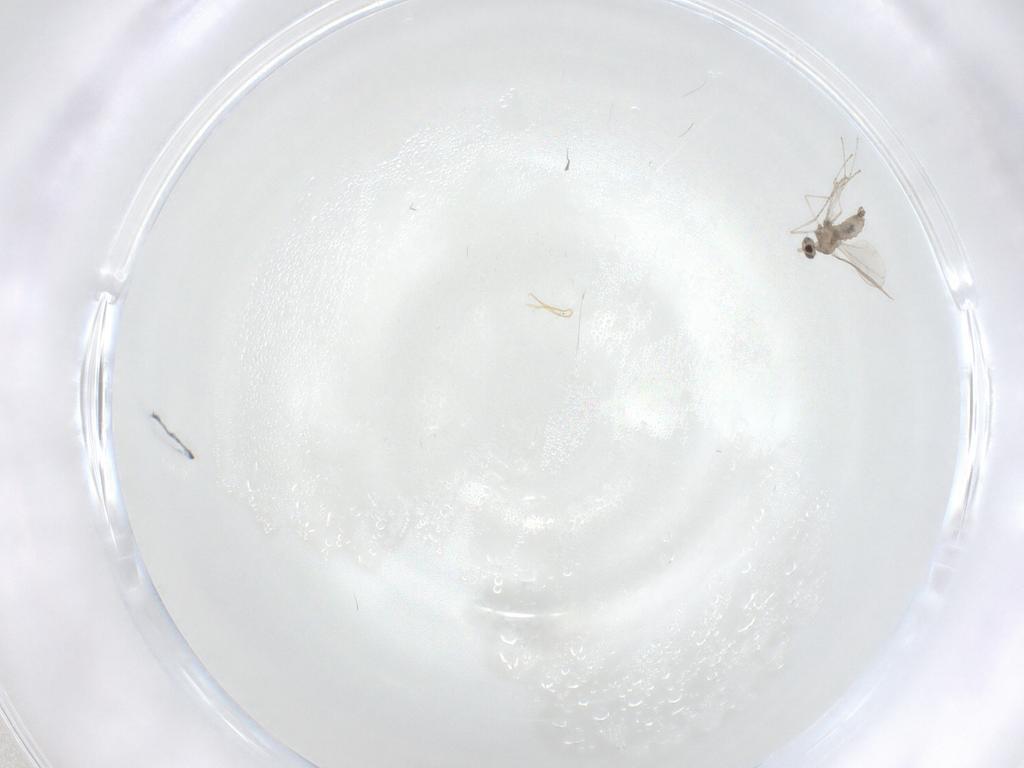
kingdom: Animalia
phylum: Arthropoda
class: Insecta
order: Diptera
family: Cecidomyiidae
